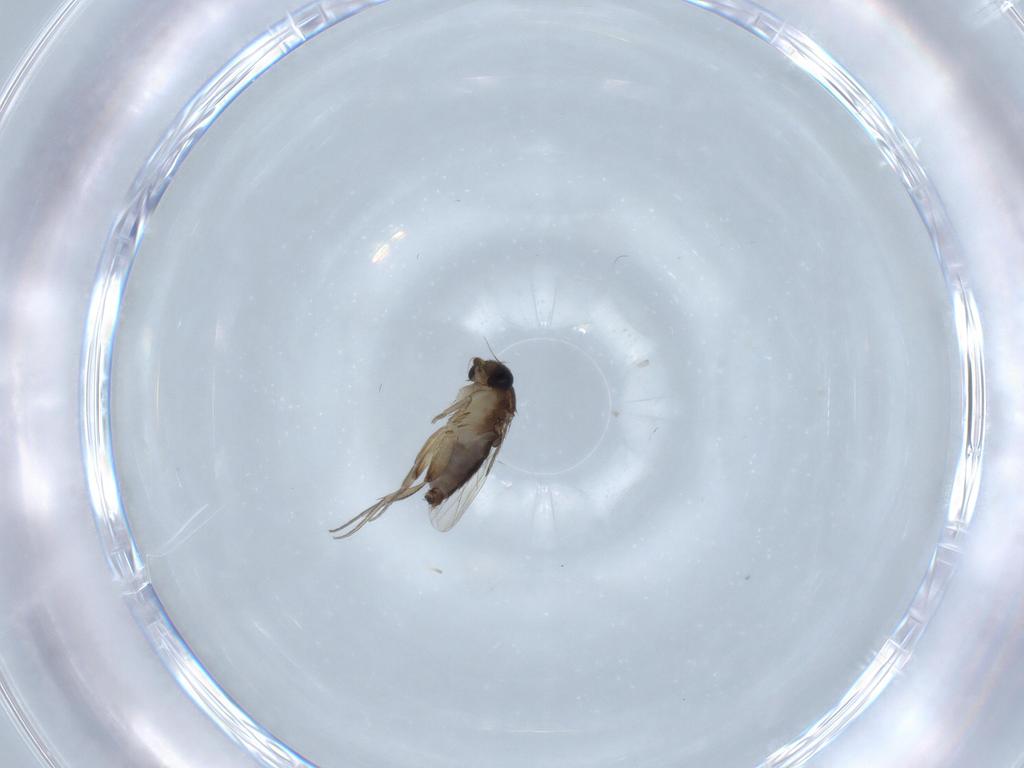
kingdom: Animalia
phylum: Arthropoda
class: Insecta
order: Diptera
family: Phoridae
